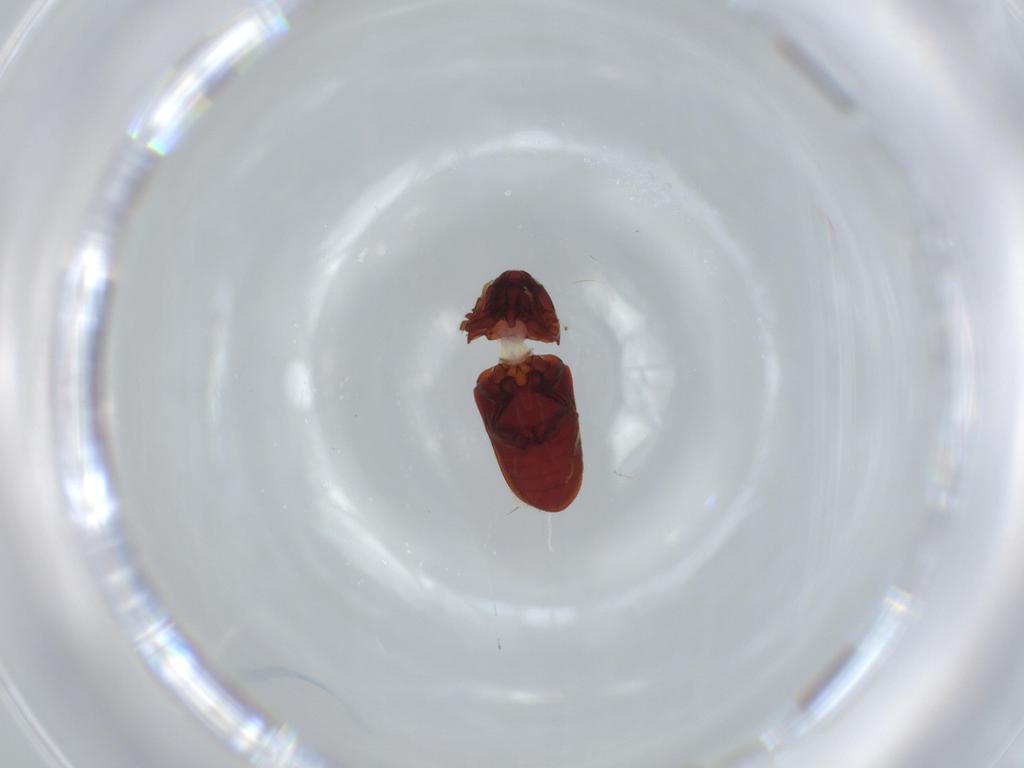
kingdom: Animalia
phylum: Arthropoda
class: Insecta
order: Coleoptera
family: Throscidae
